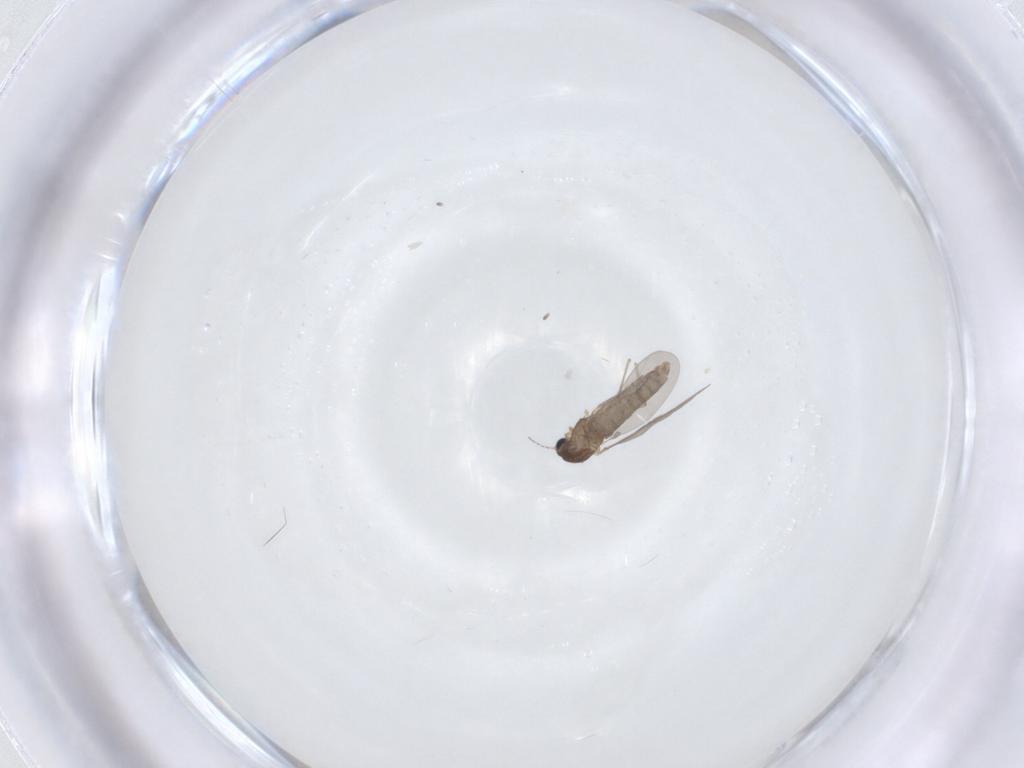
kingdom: Animalia
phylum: Arthropoda
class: Insecta
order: Diptera
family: Chironomidae
